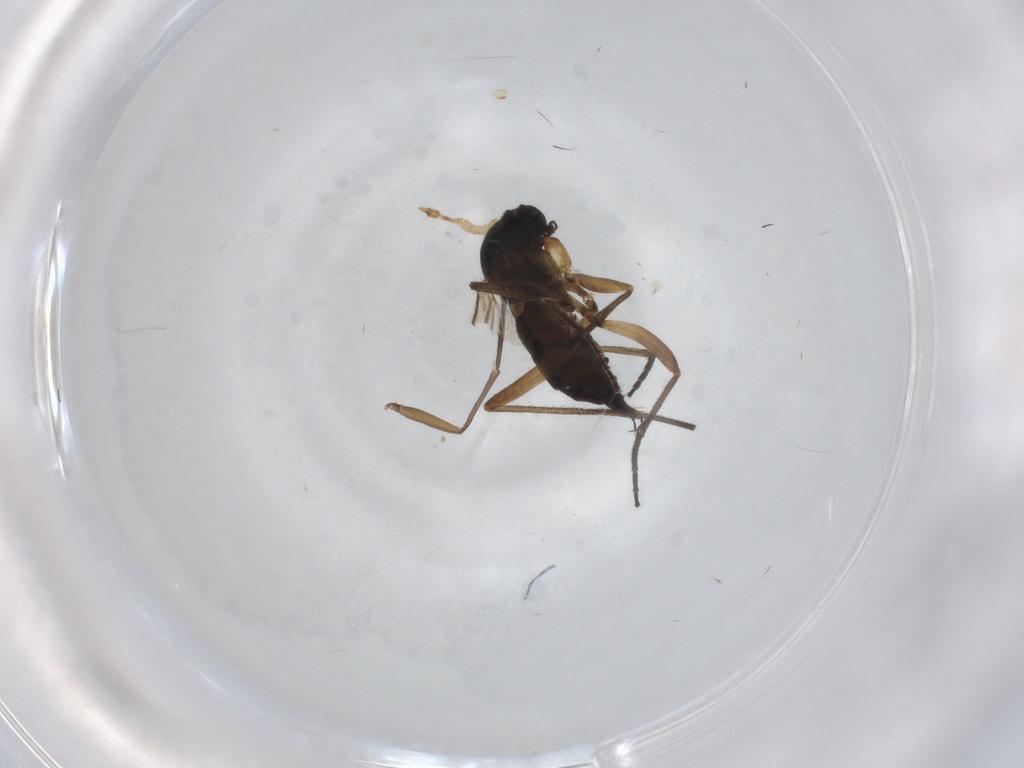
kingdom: Animalia
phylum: Arthropoda
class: Insecta
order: Diptera
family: Sciaridae
